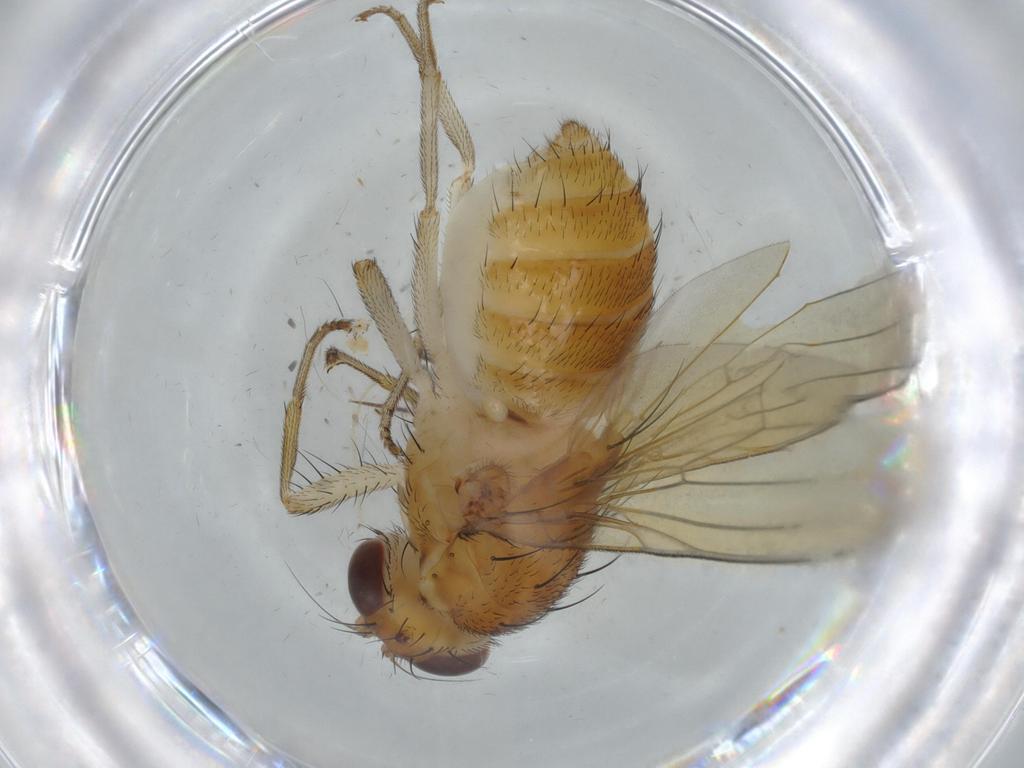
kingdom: Animalia
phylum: Arthropoda
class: Insecta
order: Diptera
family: Lauxaniidae
